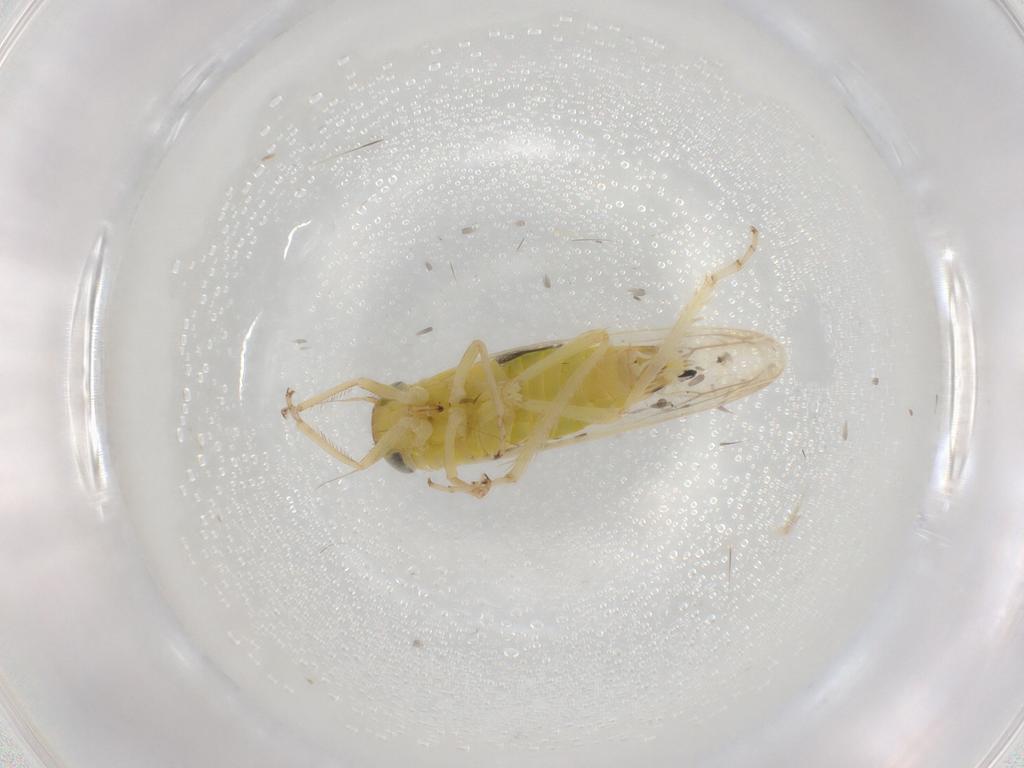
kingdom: Animalia
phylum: Arthropoda
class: Insecta
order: Hemiptera
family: Cicadellidae
